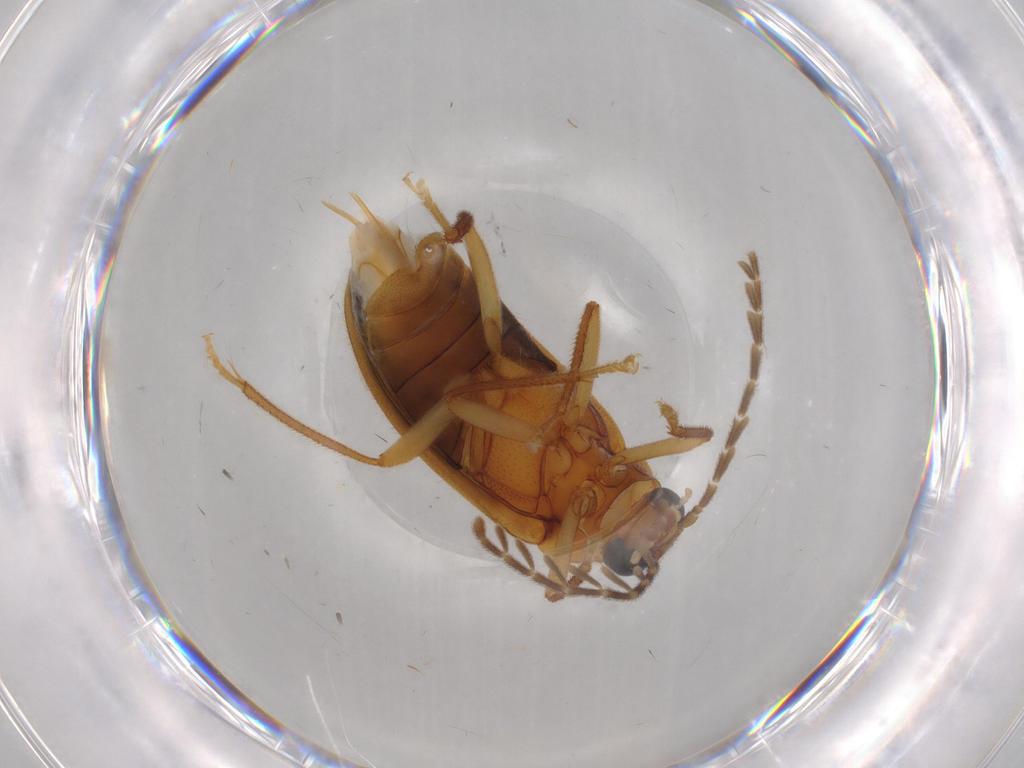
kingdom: Animalia
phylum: Arthropoda
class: Insecta
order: Coleoptera
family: Ptilodactylidae
